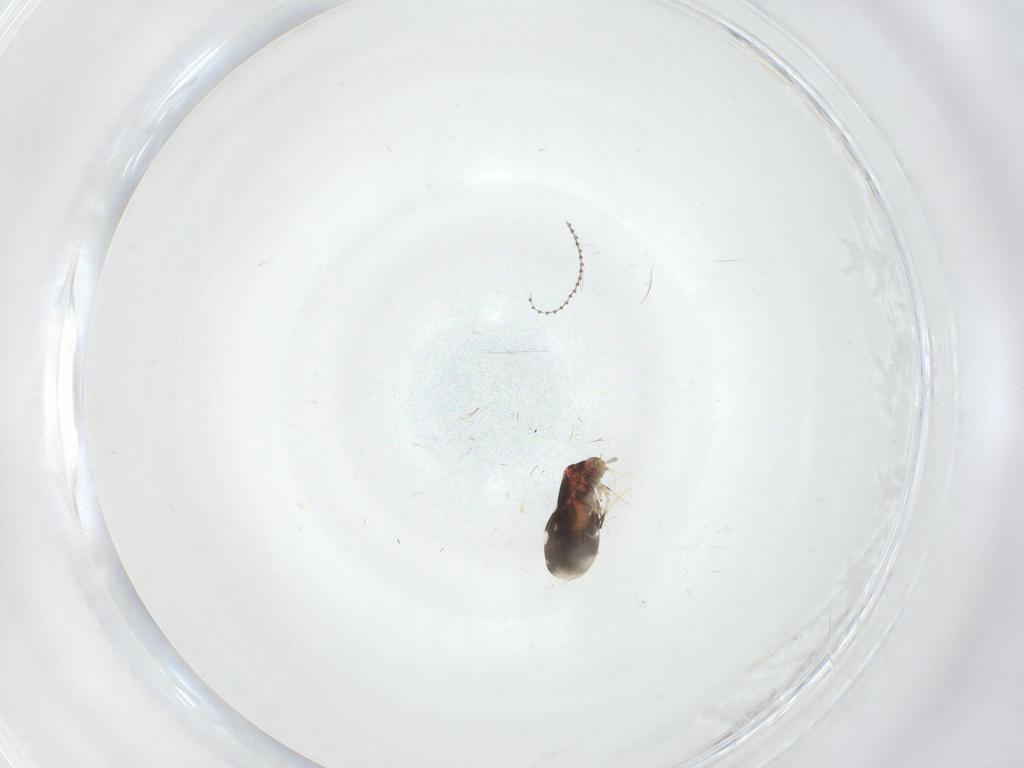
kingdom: Animalia
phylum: Arthropoda
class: Insecta
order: Hemiptera
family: Aleyrodidae
